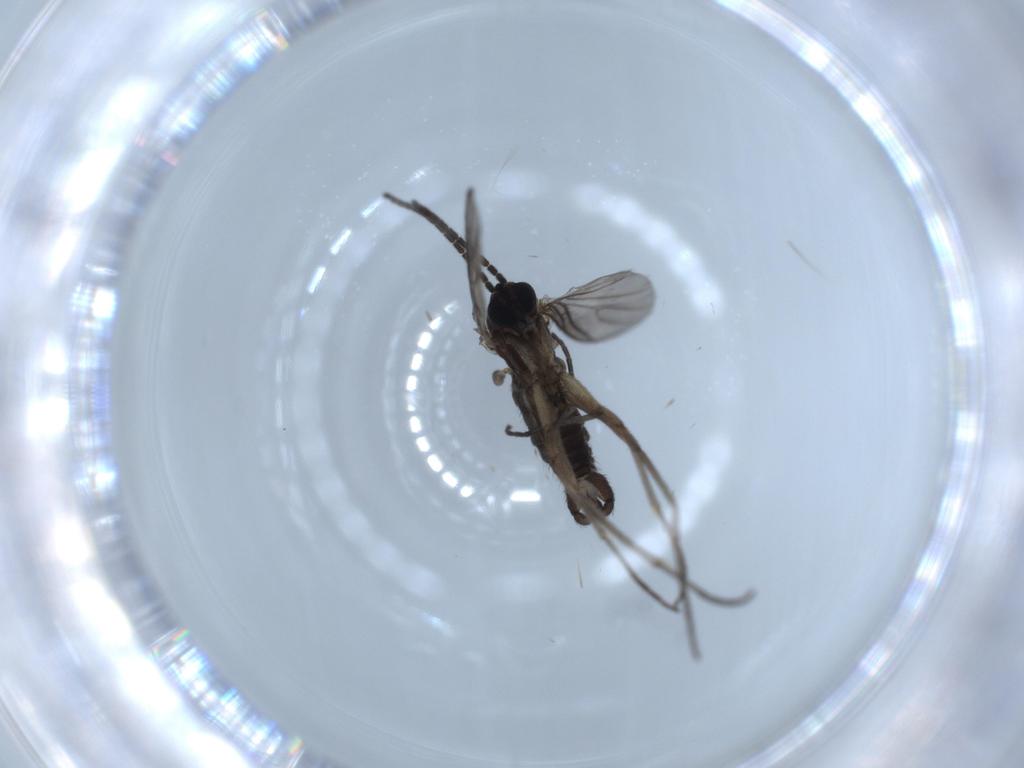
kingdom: Animalia
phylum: Arthropoda
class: Insecta
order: Diptera
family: Sciaridae
